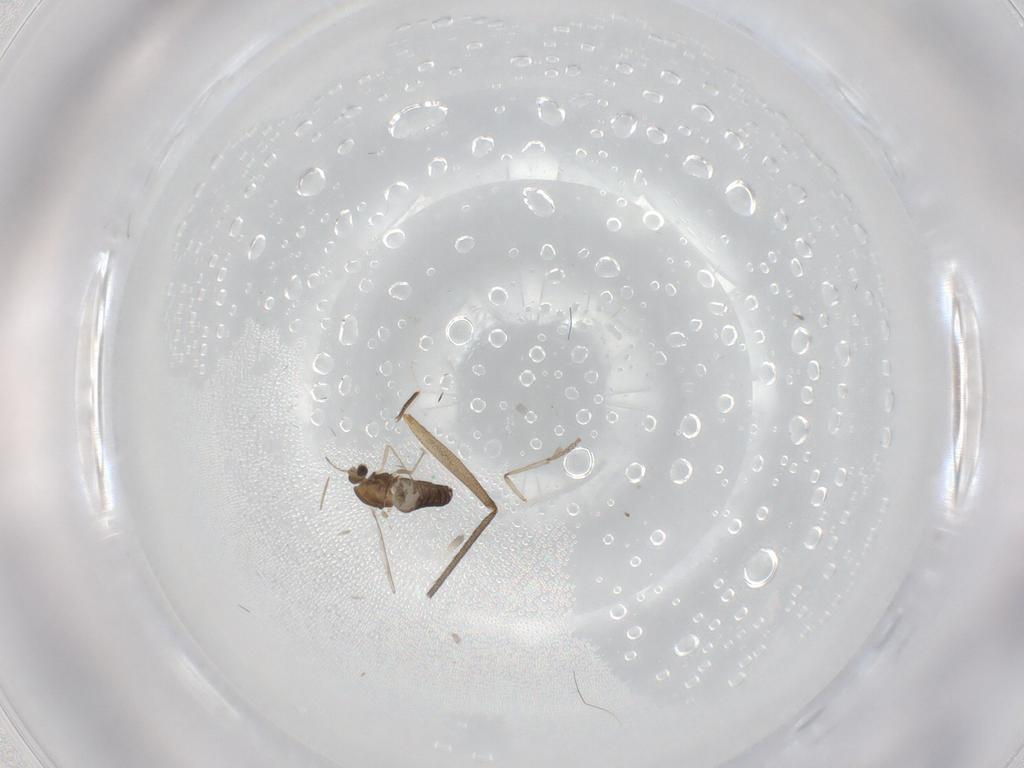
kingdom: Animalia
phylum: Arthropoda
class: Insecta
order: Diptera
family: Ditomyiidae
